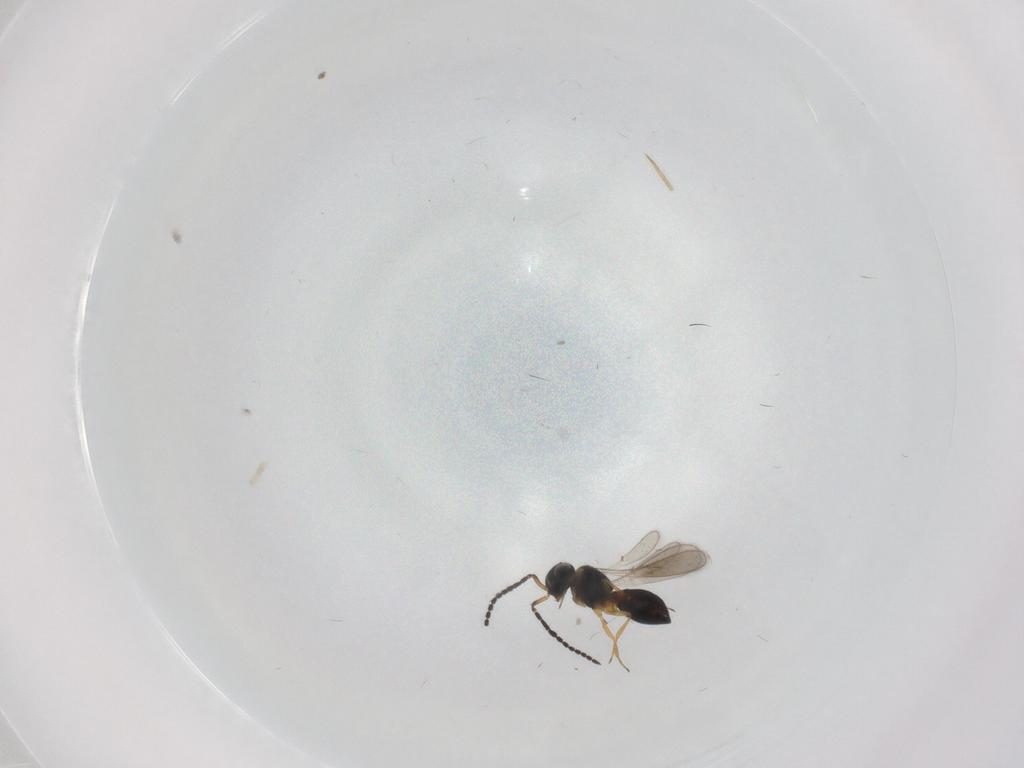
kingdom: Animalia
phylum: Arthropoda
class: Insecta
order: Hymenoptera
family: Scelionidae
